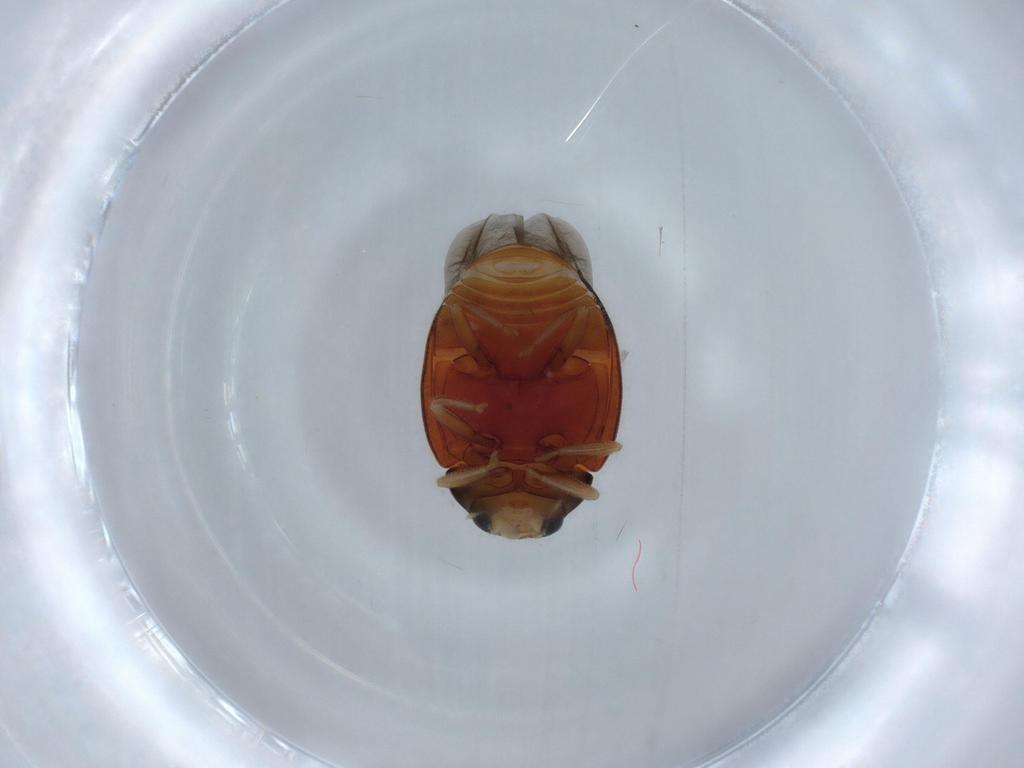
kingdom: Animalia
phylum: Arthropoda
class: Insecta
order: Coleoptera
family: Coccinellidae
